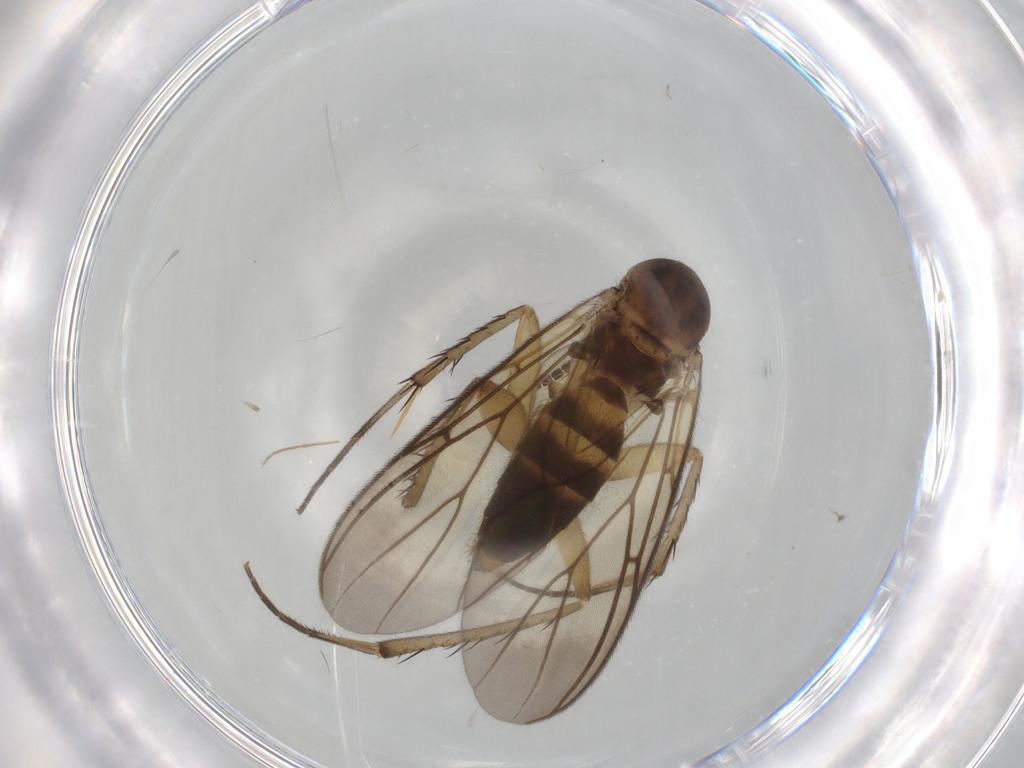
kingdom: Animalia
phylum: Arthropoda
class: Insecta
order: Diptera
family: Mycetophilidae
